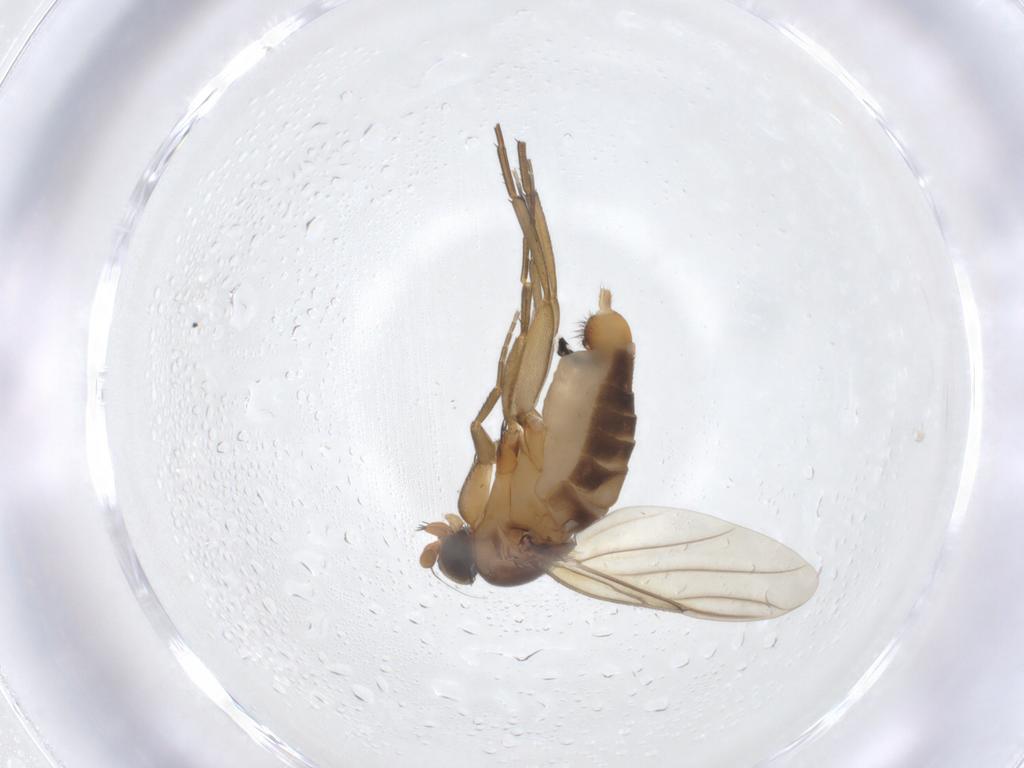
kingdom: Animalia
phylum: Arthropoda
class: Insecta
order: Diptera
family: Phoridae
